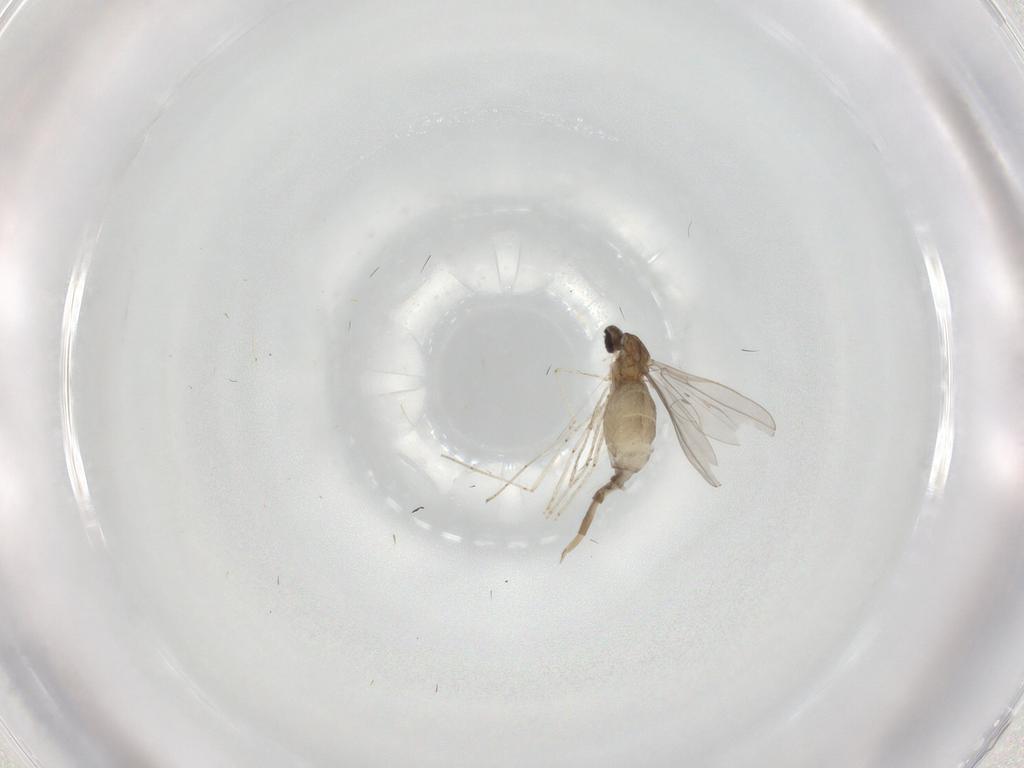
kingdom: Animalia
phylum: Arthropoda
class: Insecta
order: Diptera
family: Cecidomyiidae
